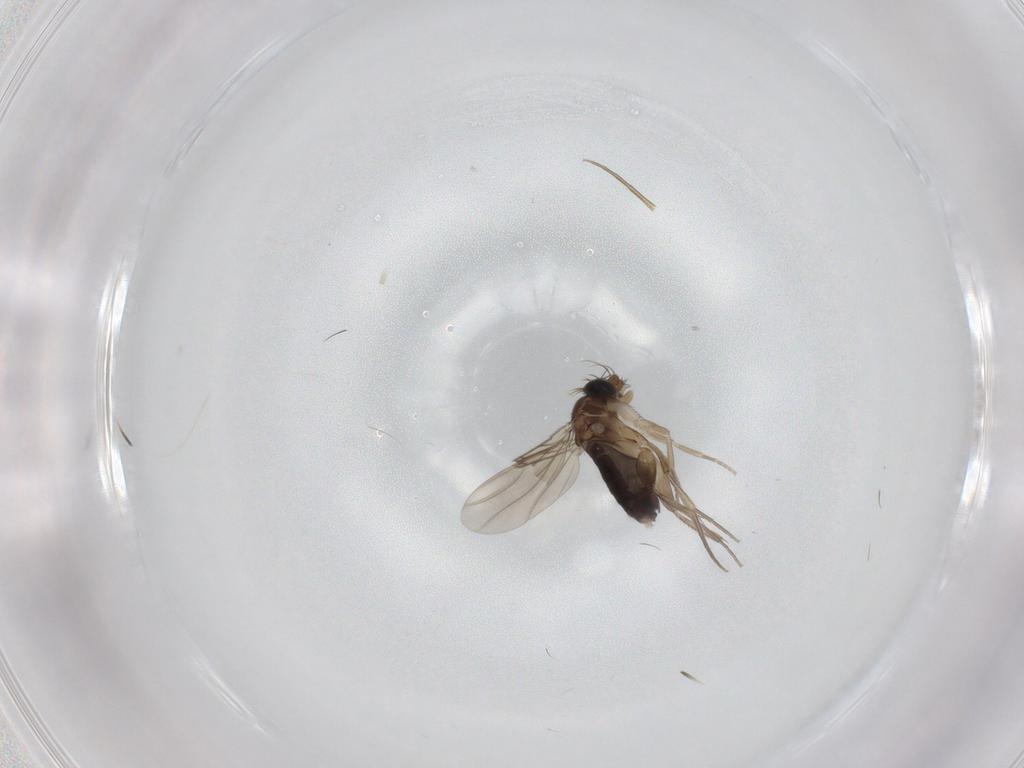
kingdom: Animalia
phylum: Arthropoda
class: Insecta
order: Diptera
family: Phoridae
